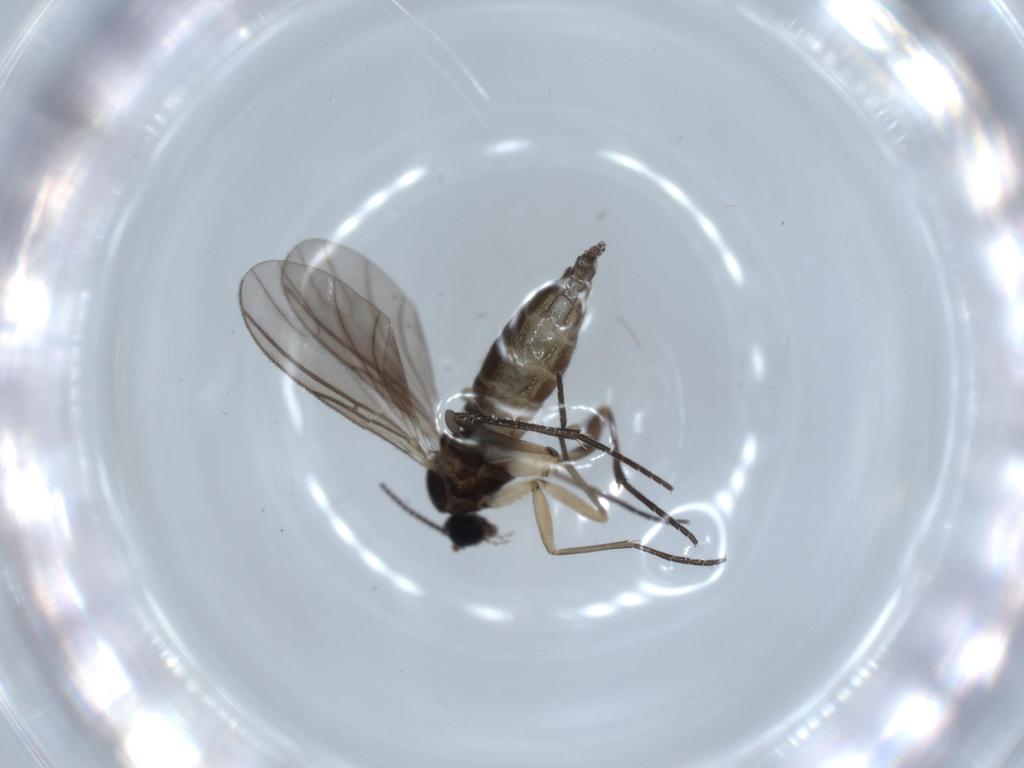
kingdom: Animalia
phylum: Arthropoda
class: Insecta
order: Diptera
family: Sciaridae
